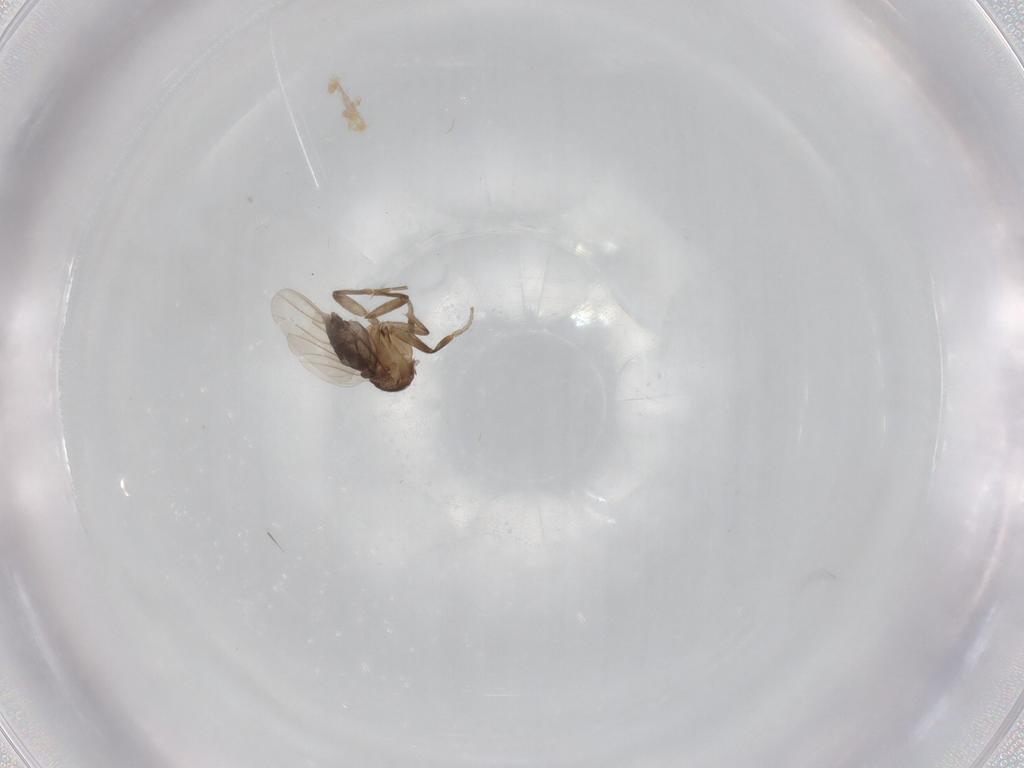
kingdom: Animalia
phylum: Arthropoda
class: Insecta
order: Diptera
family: Phoridae
